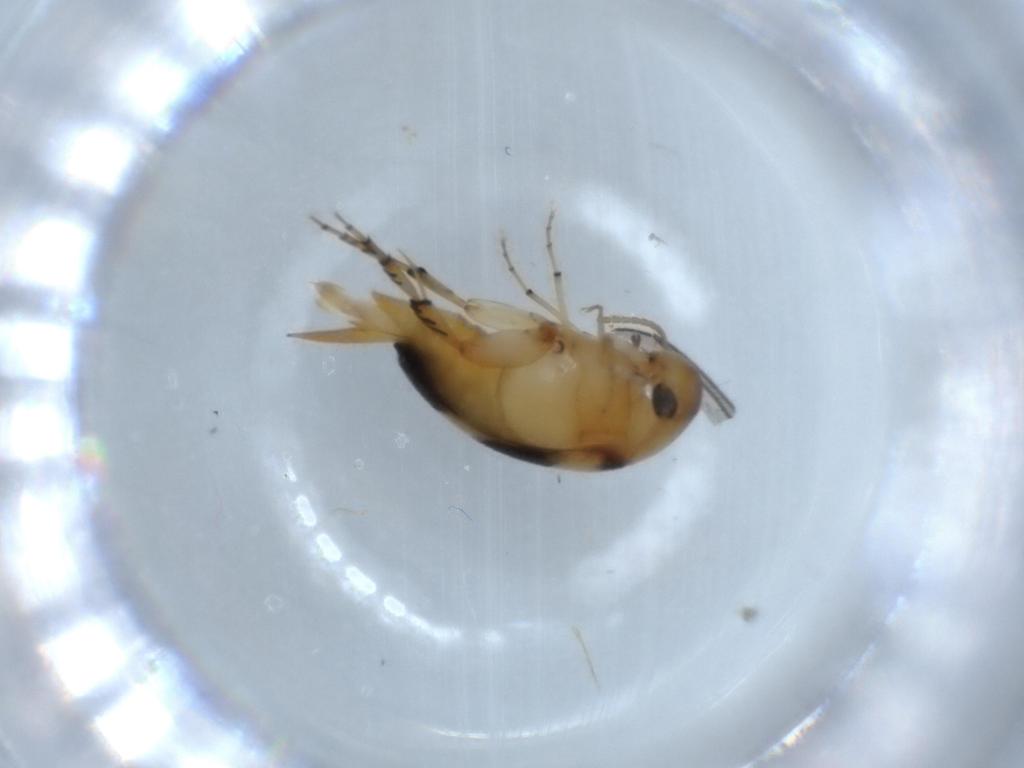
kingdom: Animalia
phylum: Arthropoda
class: Insecta
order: Coleoptera
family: Mordellidae
